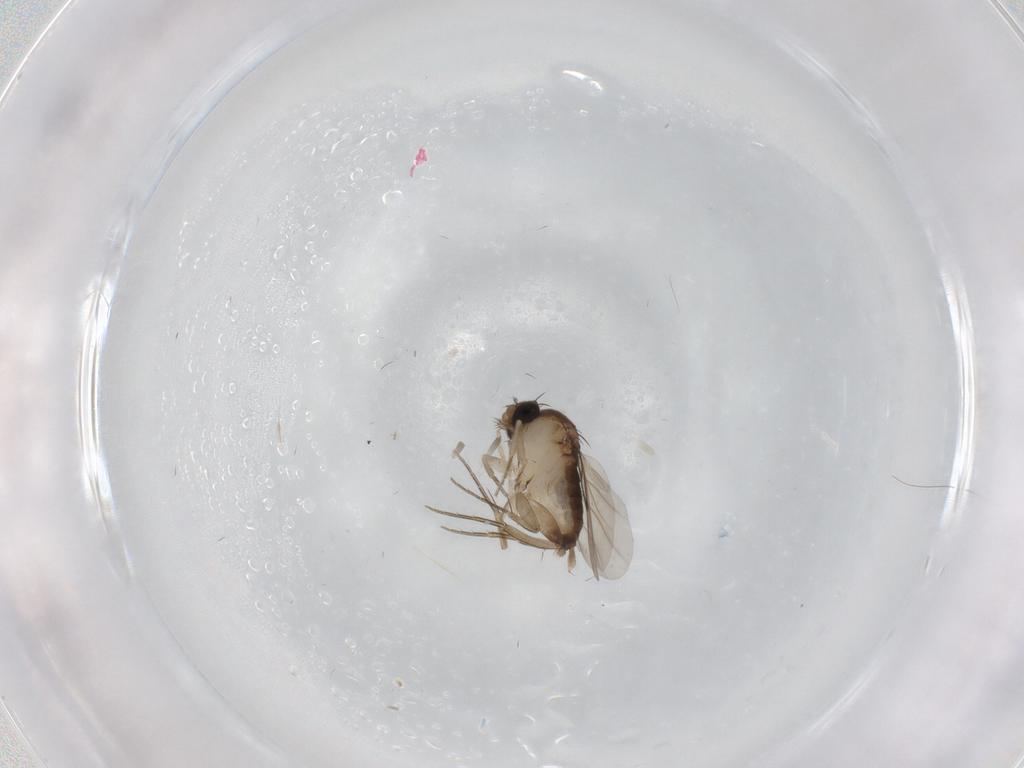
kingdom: Animalia
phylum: Arthropoda
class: Insecta
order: Diptera
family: Phoridae
